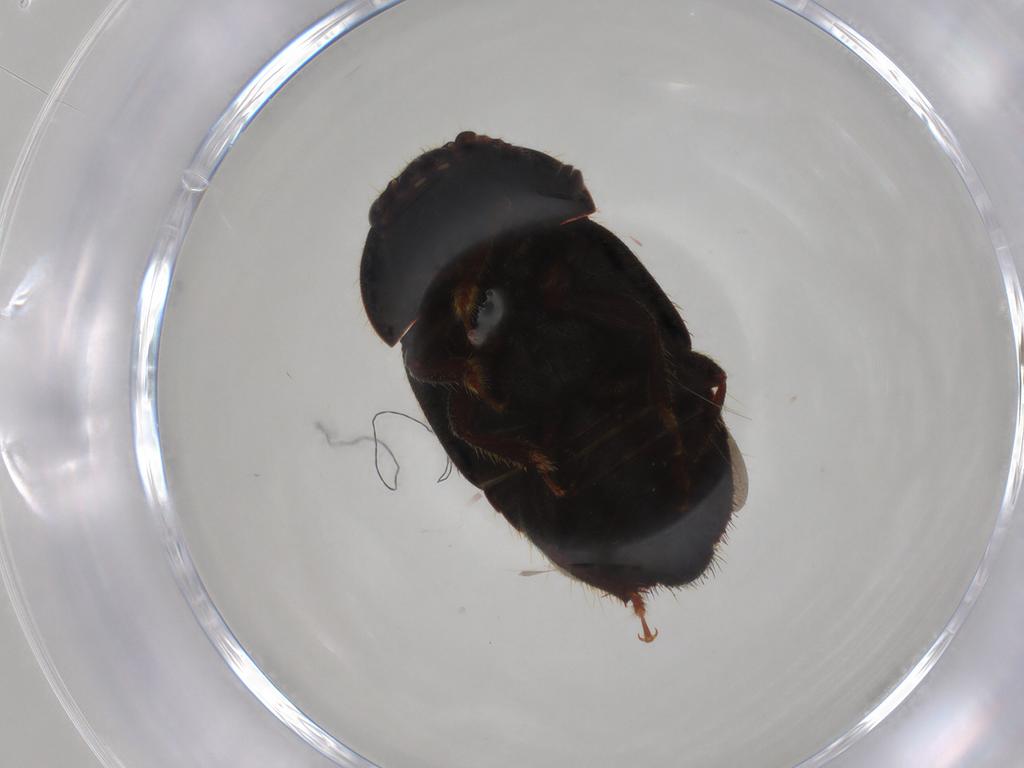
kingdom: Animalia
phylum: Arthropoda
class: Insecta
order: Coleoptera
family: Nitidulidae
